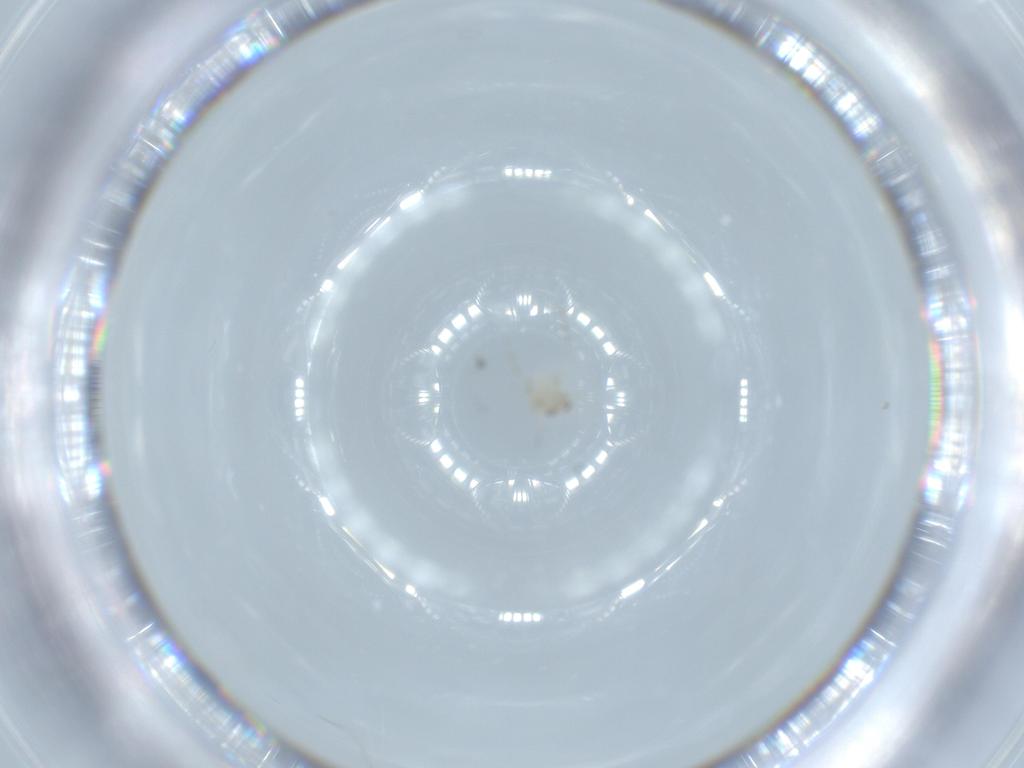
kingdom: Animalia
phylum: Arthropoda
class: Insecta
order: Diptera
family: Cecidomyiidae
